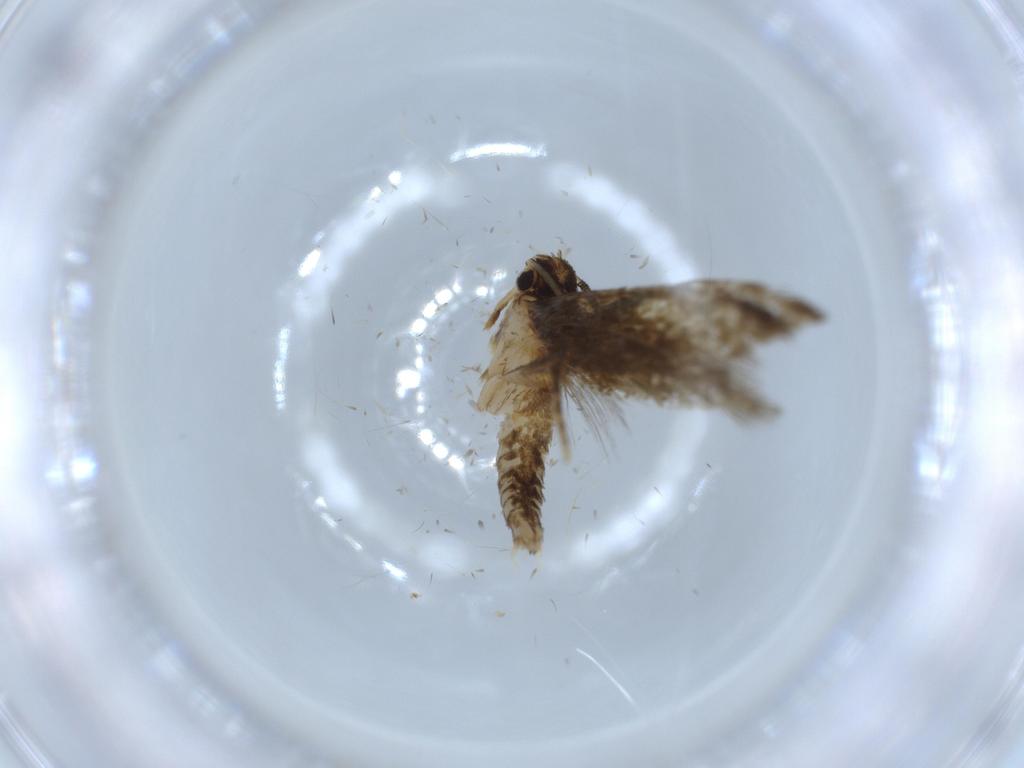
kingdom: Animalia
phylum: Arthropoda
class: Insecta
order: Lepidoptera
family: Tineidae
